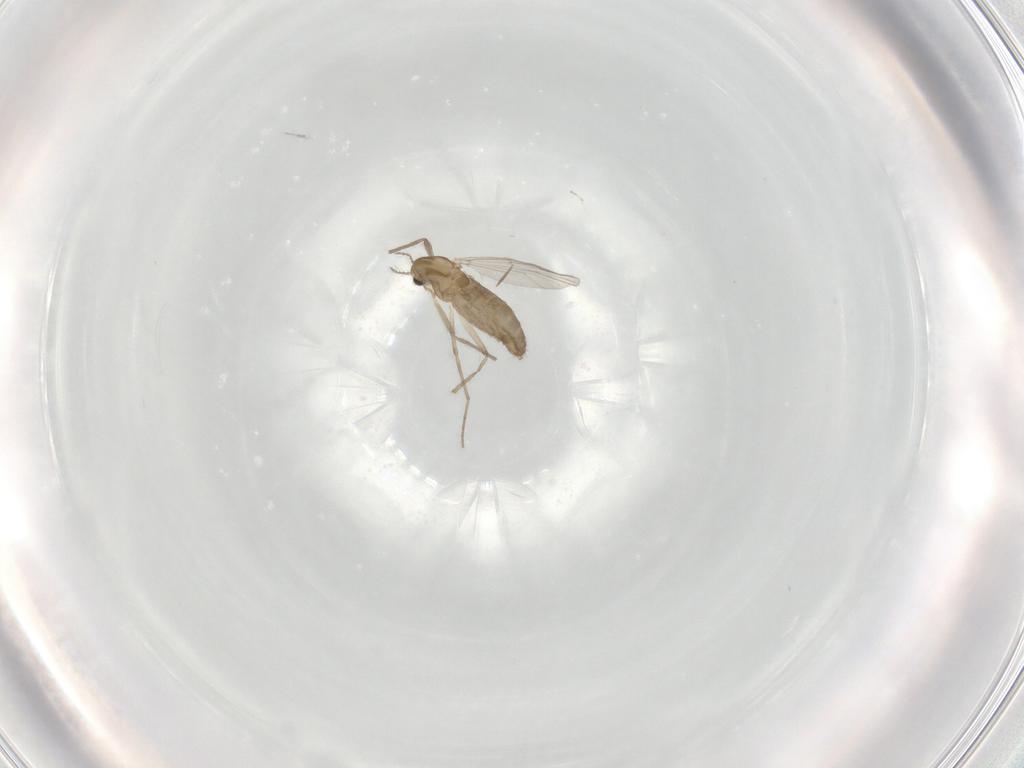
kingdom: Animalia
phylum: Arthropoda
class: Insecta
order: Diptera
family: Chironomidae
